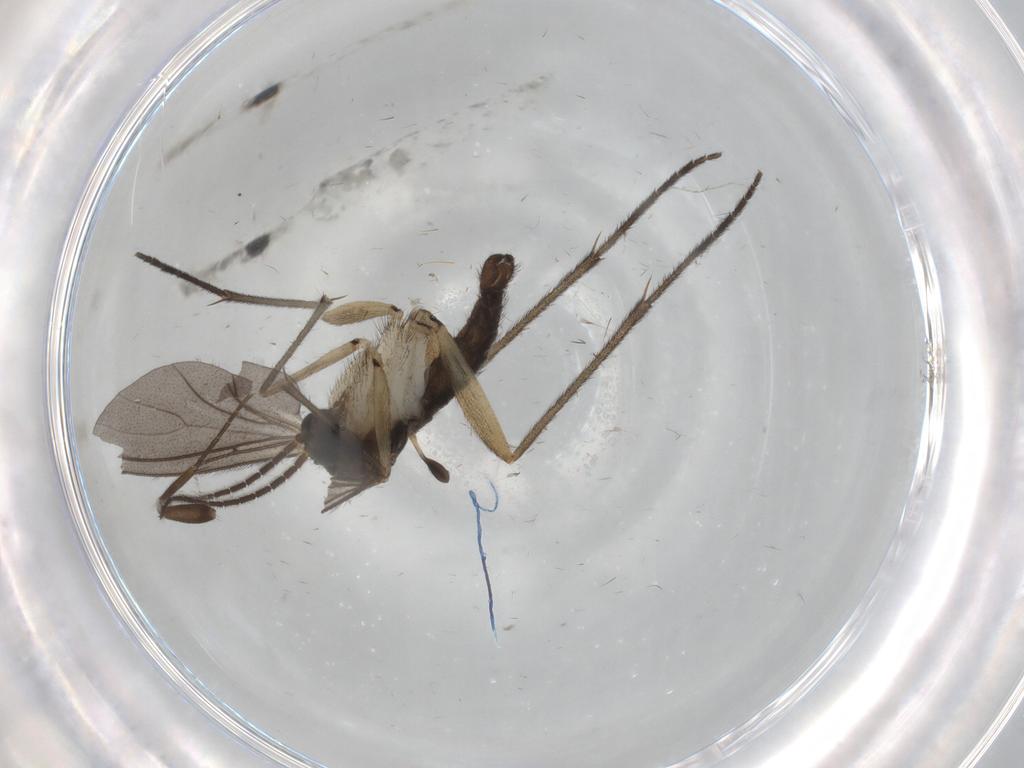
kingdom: Animalia
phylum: Arthropoda
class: Insecta
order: Diptera
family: Sciaridae
